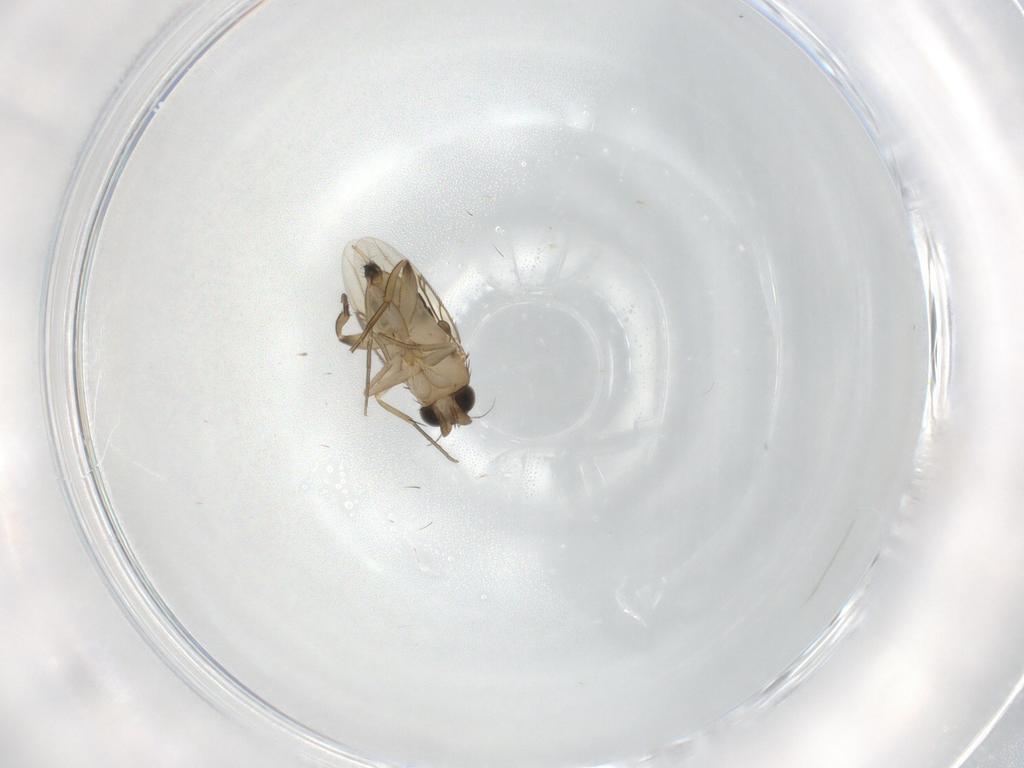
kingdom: Animalia
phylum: Arthropoda
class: Insecta
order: Diptera
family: Phoridae
